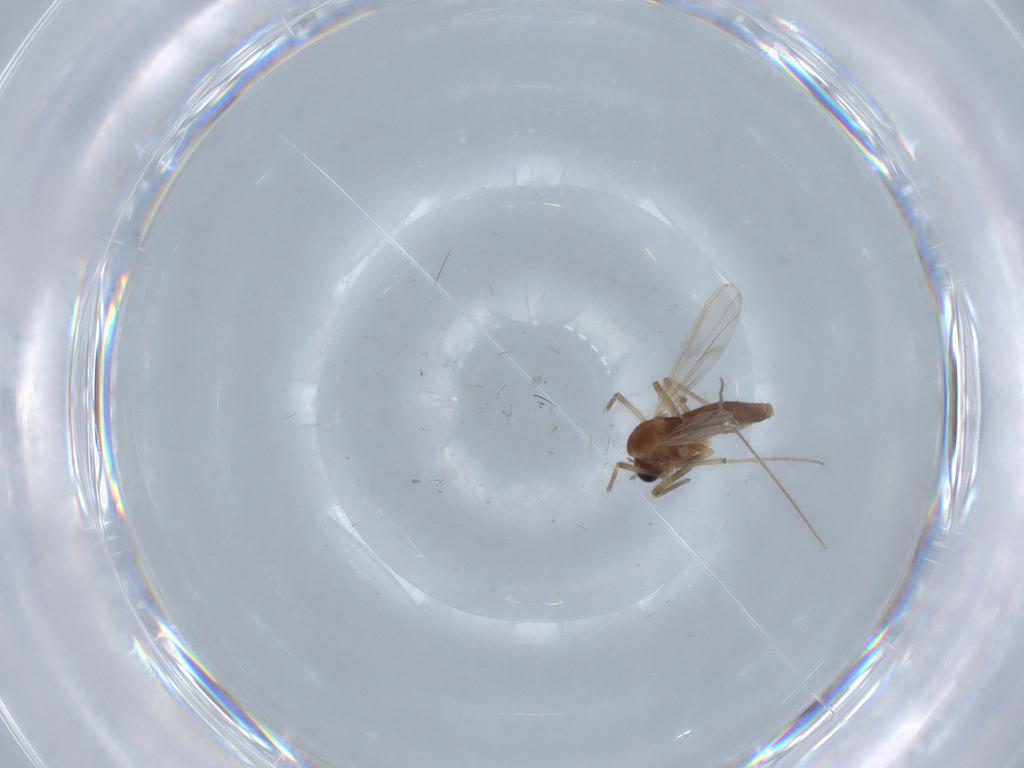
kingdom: Animalia
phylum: Arthropoda
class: Insecta
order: Diptera
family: Chironomidae
